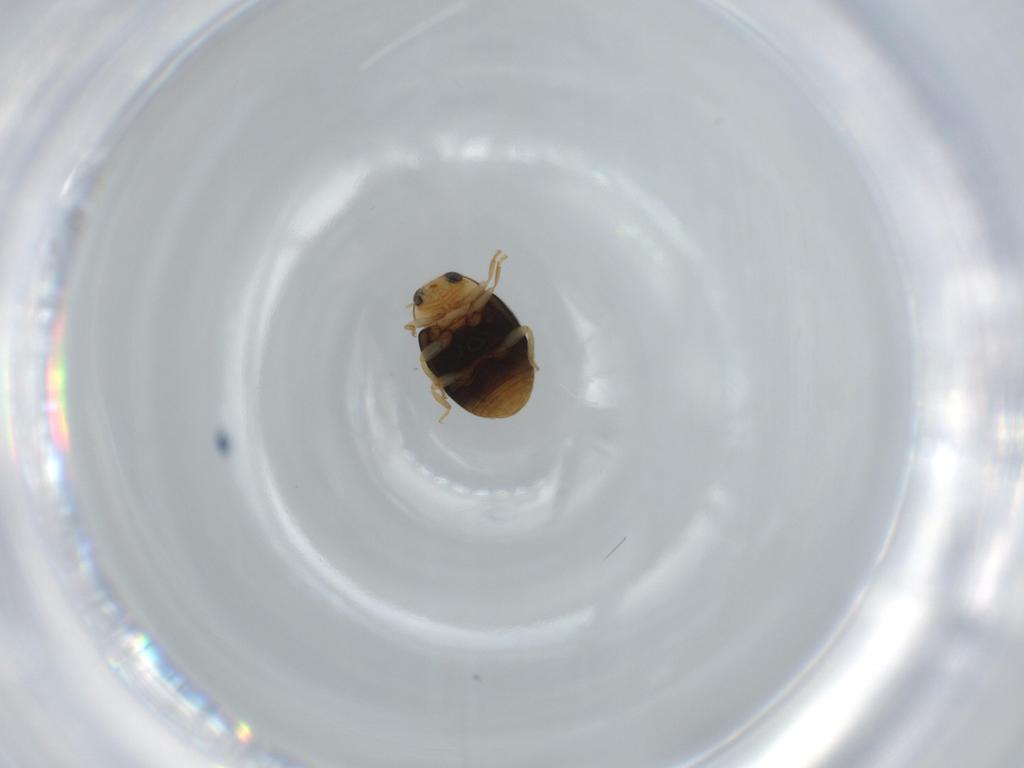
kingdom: Animalia
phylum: Arthropoda
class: Insecta
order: Coleoptera
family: Coccinellidae
